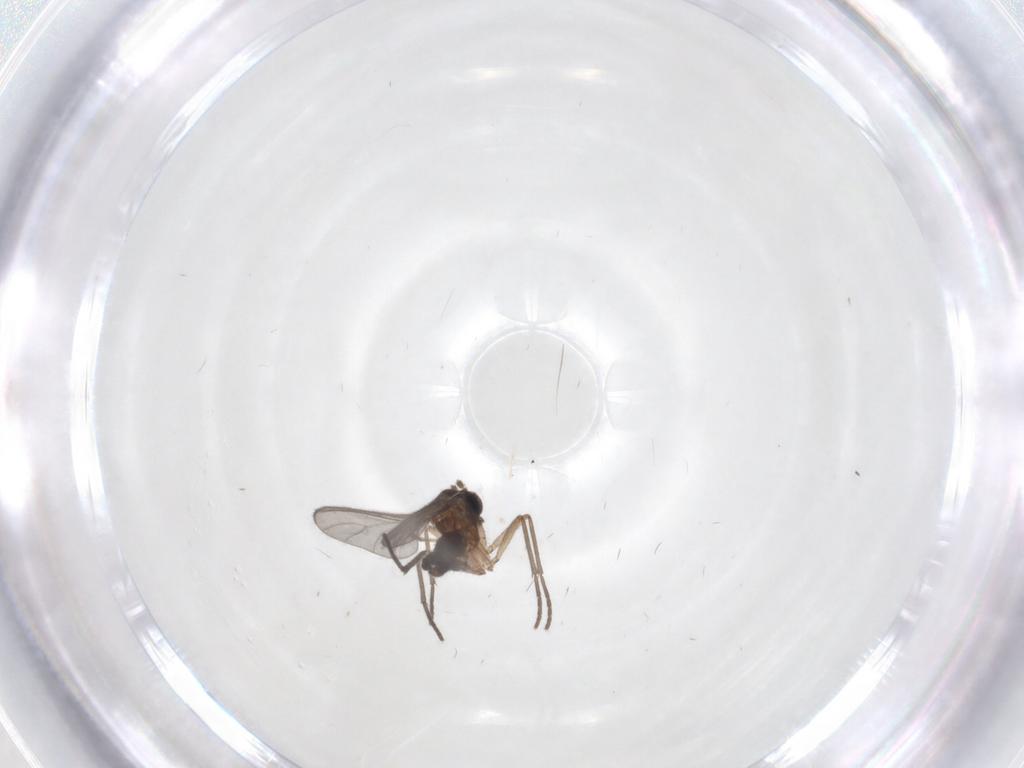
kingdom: Animalia
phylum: Arthropoda
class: Insecta
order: Diptera
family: Sciaridae
